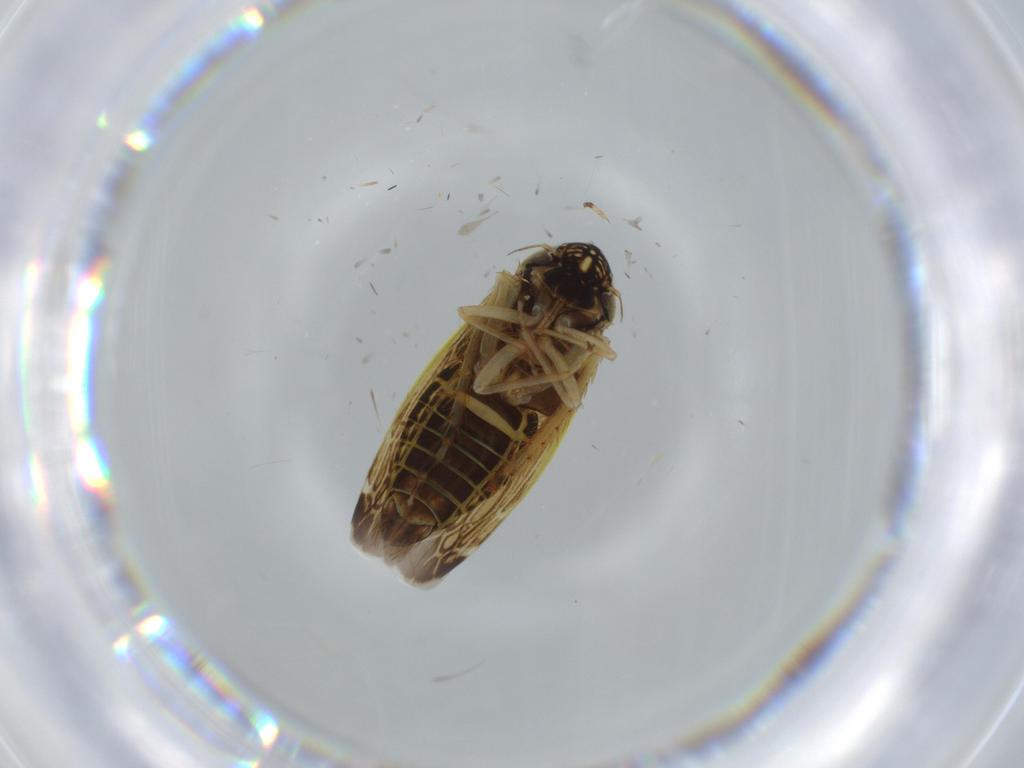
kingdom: Animalia
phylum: Arthropoda
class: Insecta
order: Hemiptera
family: Cicadellidae
